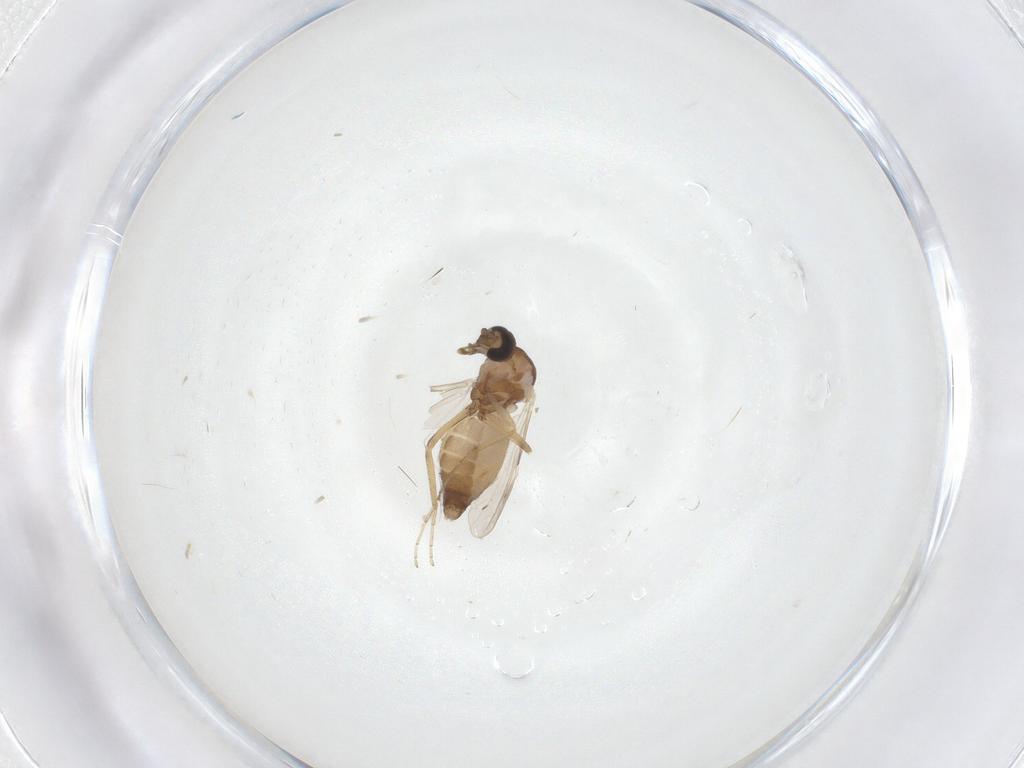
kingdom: Animalia
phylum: Arthropoda
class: Insecta
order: Diptera
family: Ceratopogonidae
